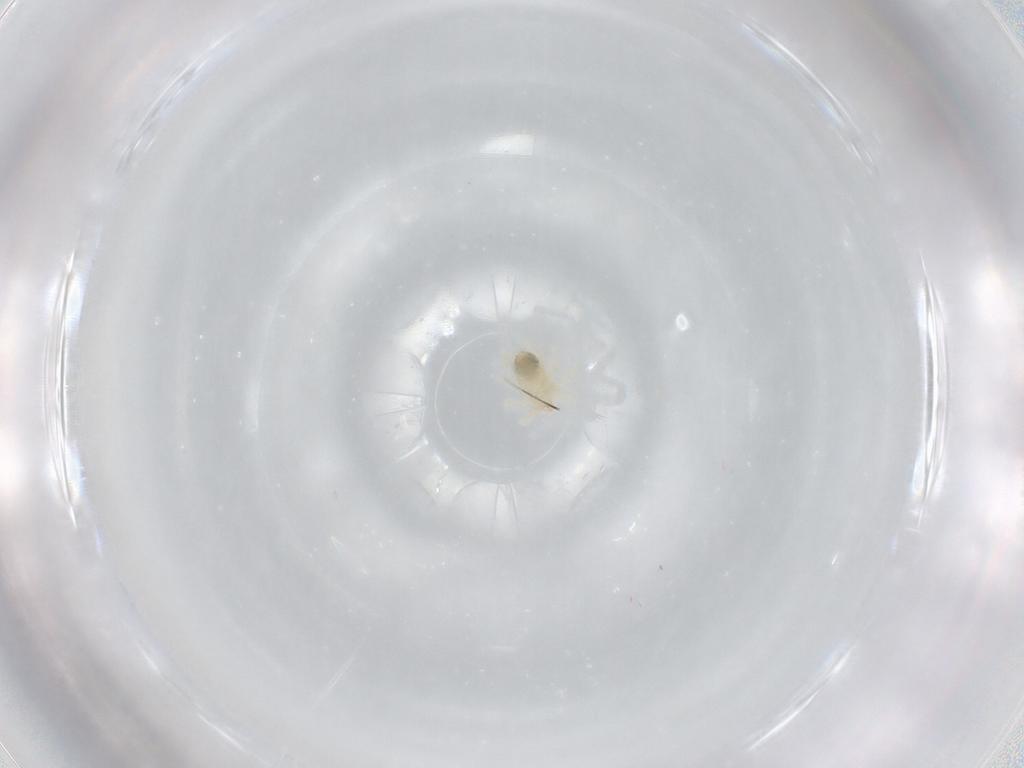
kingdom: Animalia
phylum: Arthropoda
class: Arachnida
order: Trombidiformes
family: Anystidae
